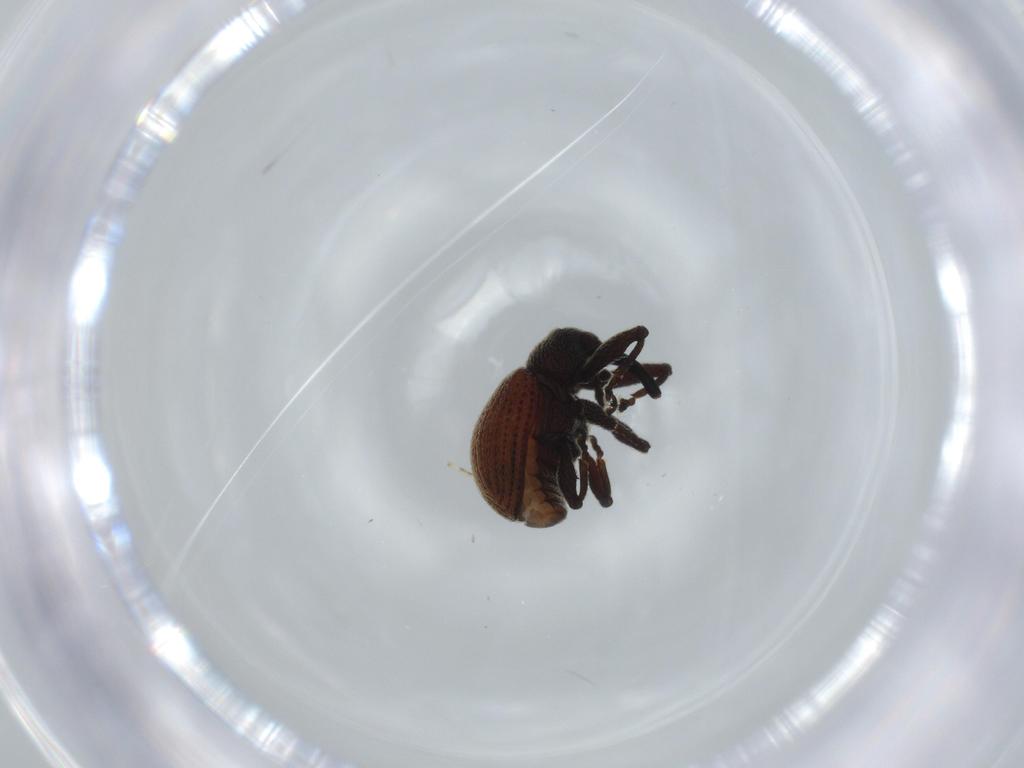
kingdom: Animalia
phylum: Arthropoda
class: Insecta
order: Coleoptera
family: Curculionidae
